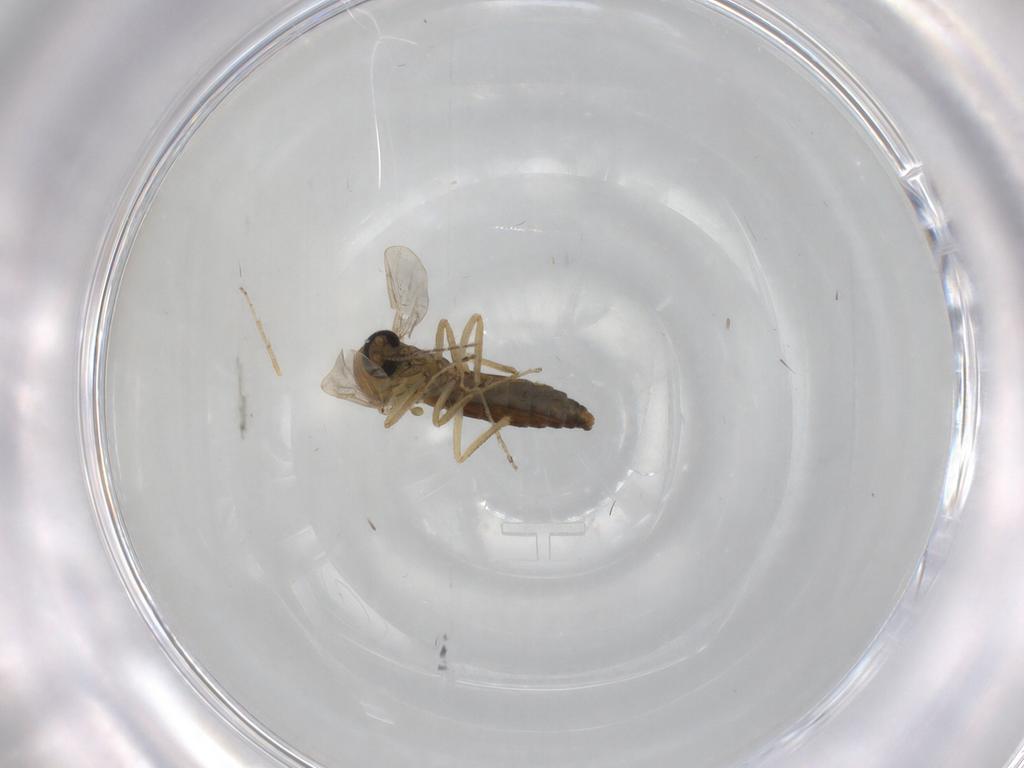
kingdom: Animalia
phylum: Arthropoda
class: Insecta
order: Diptera
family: Ceratopogonidae
